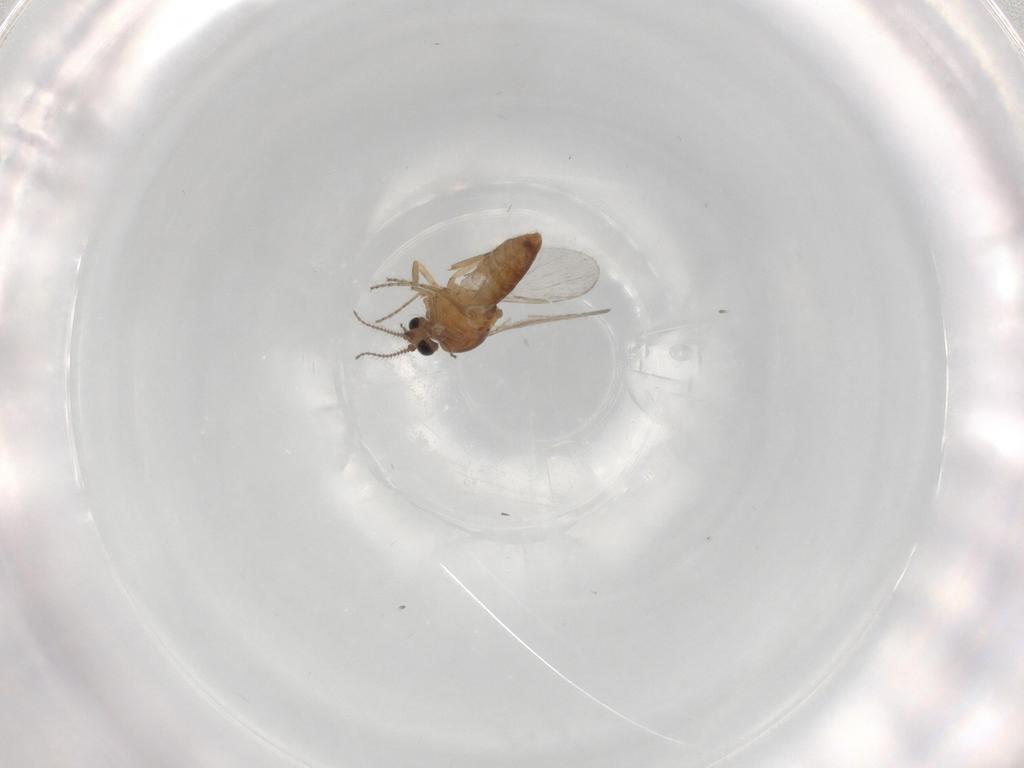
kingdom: Animalia
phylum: Arthropoda
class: Insecta
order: Diptera
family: Ceratopogonidae
